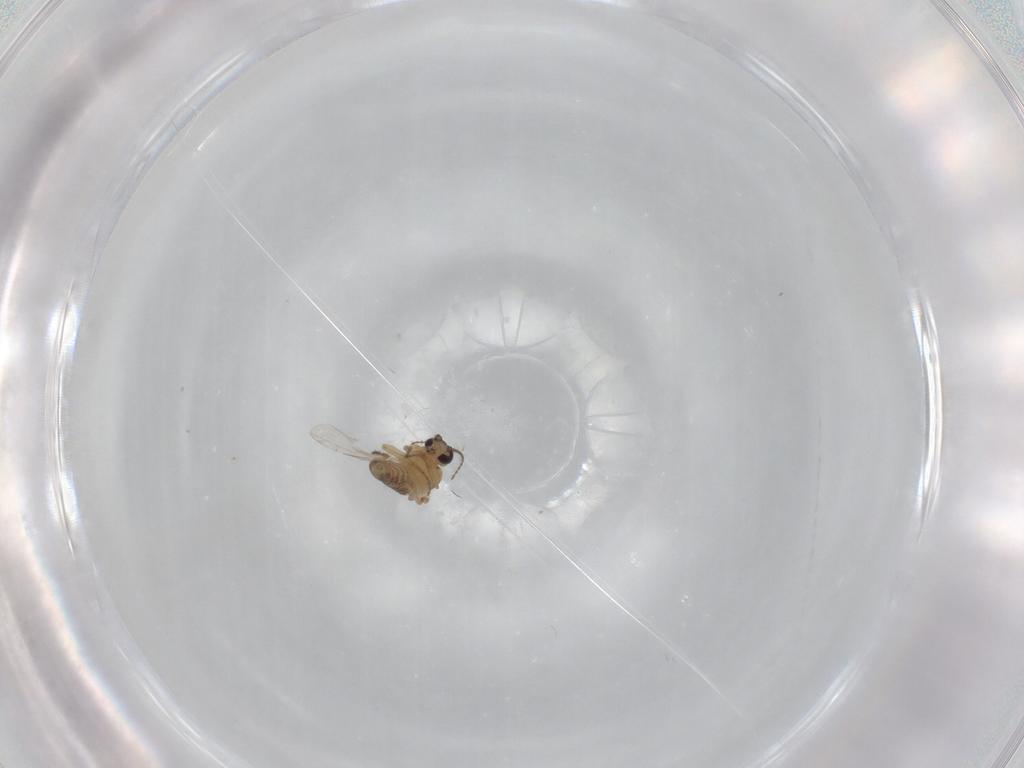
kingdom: Animalia
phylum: Arthropoda
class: Insecta
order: Diptera
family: Ceratopogonidae
